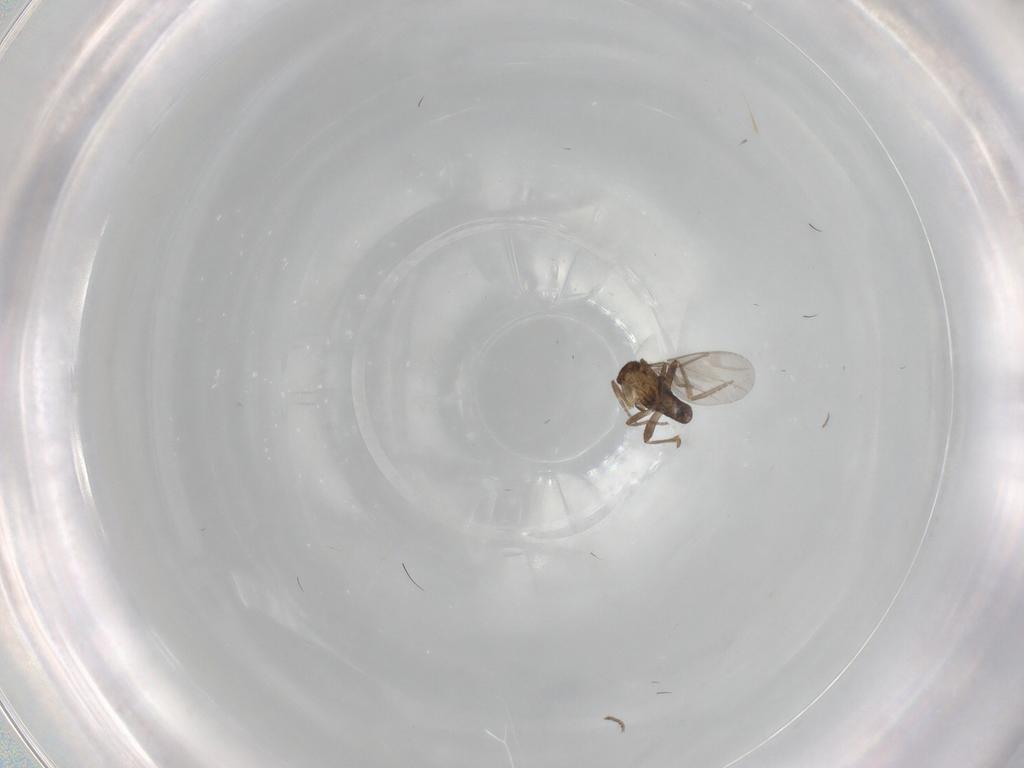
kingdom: Animalia
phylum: Arthropoda
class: Insecta
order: Diptera
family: Tabanidae
